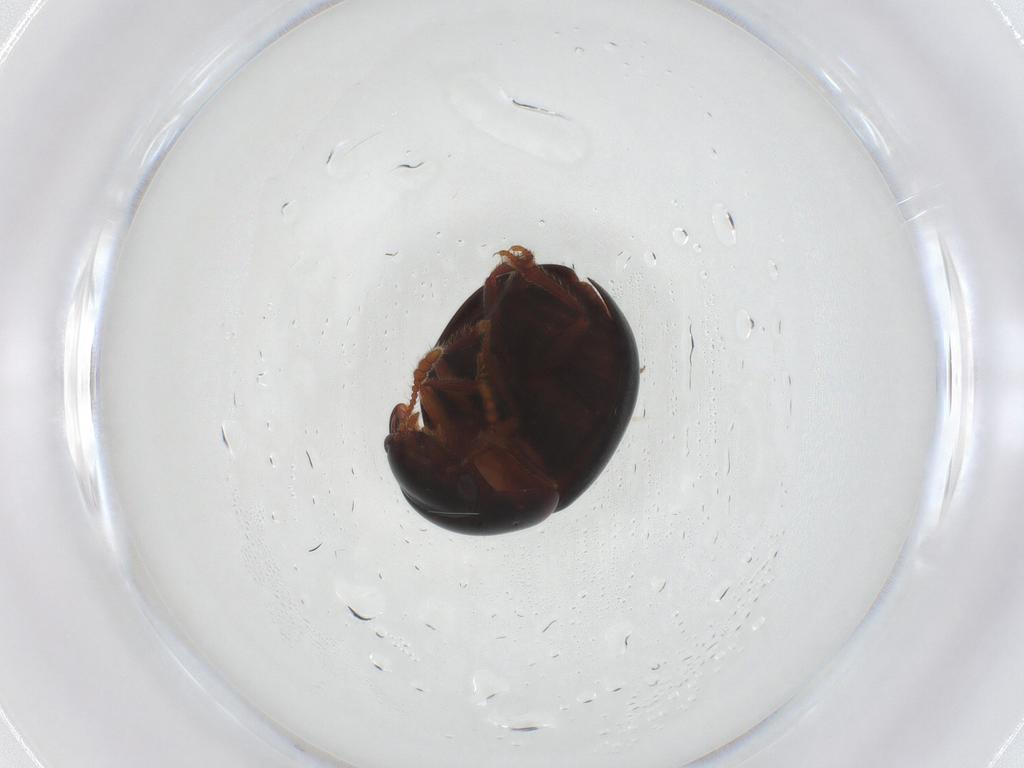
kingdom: Animalia
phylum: Arthropoda
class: Insecta
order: Coleoptera
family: Leiodidae
